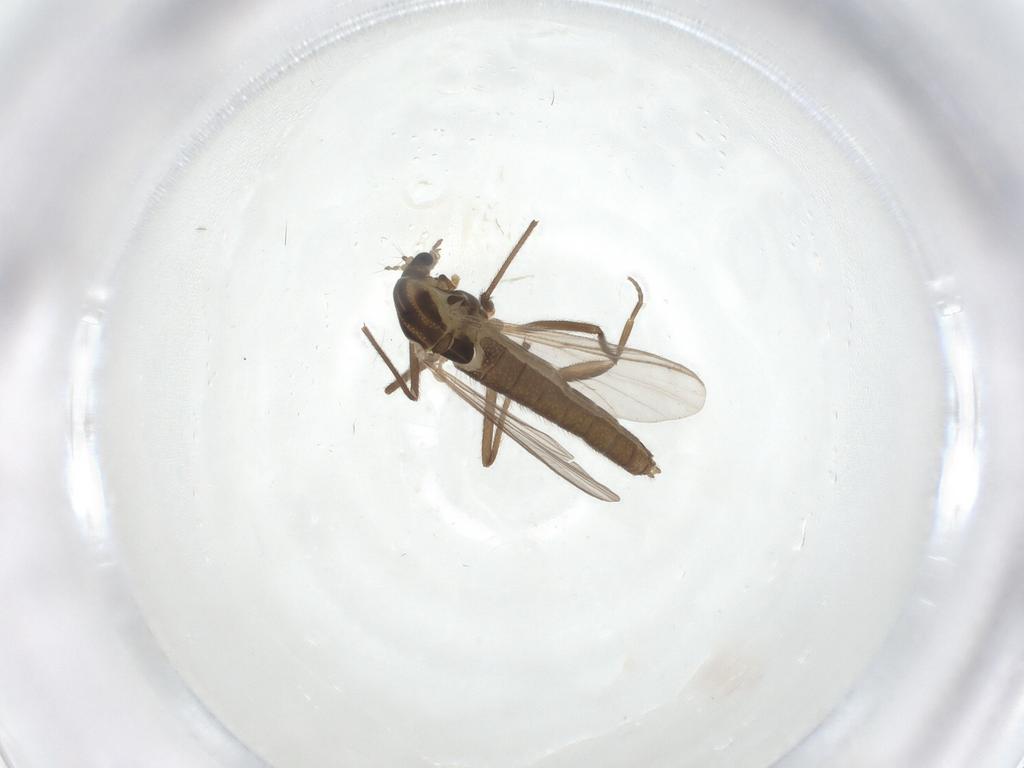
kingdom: Animalia
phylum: Arthropoda
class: Insecta
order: Diptera
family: Chironomidae
